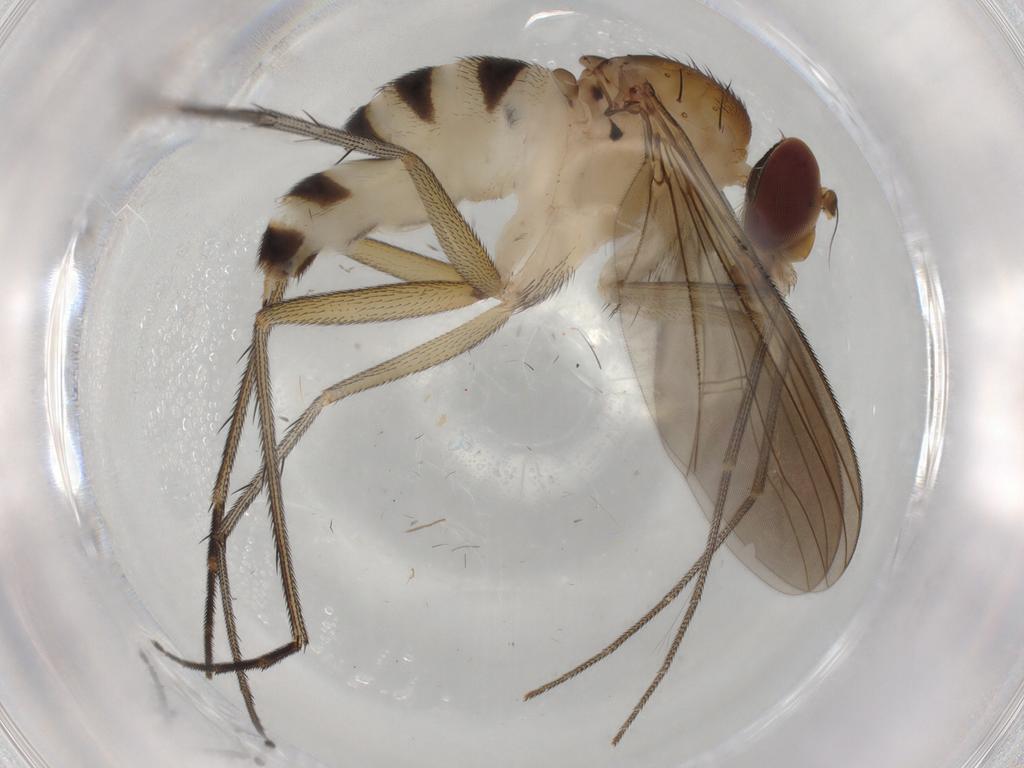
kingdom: Animalia
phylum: Arthropoda
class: Insecta
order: Diptera
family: Dolichopodidae
